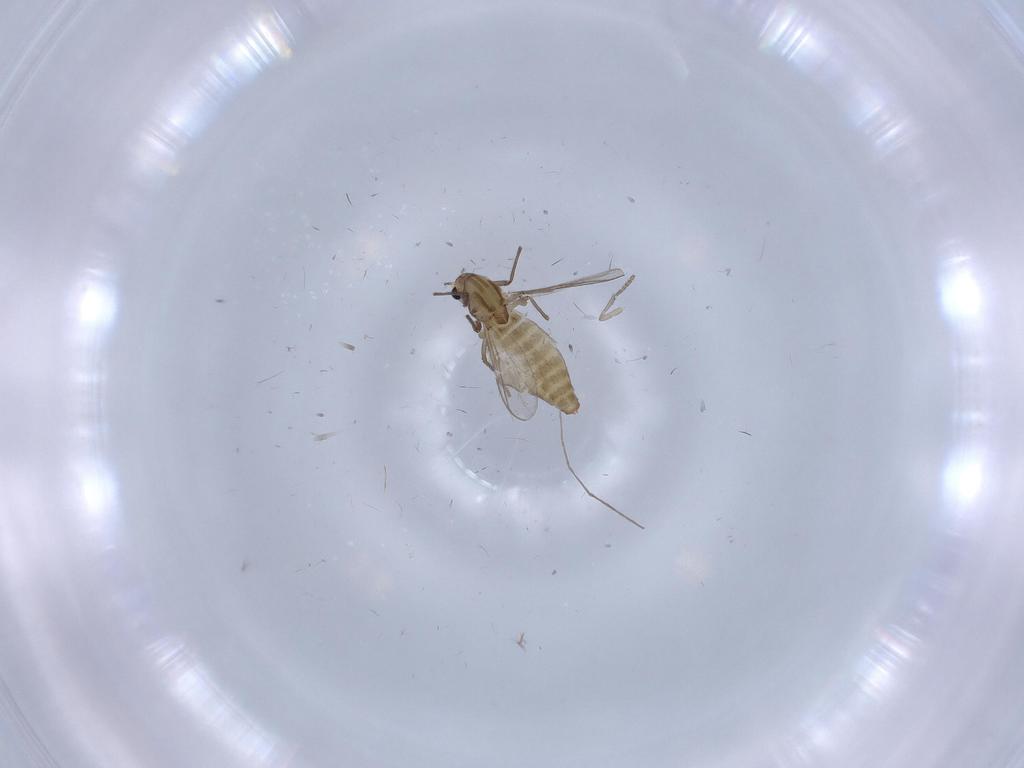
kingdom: Animalia
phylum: Arthropoda
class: Insecta
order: Diptera
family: Chironomidae
